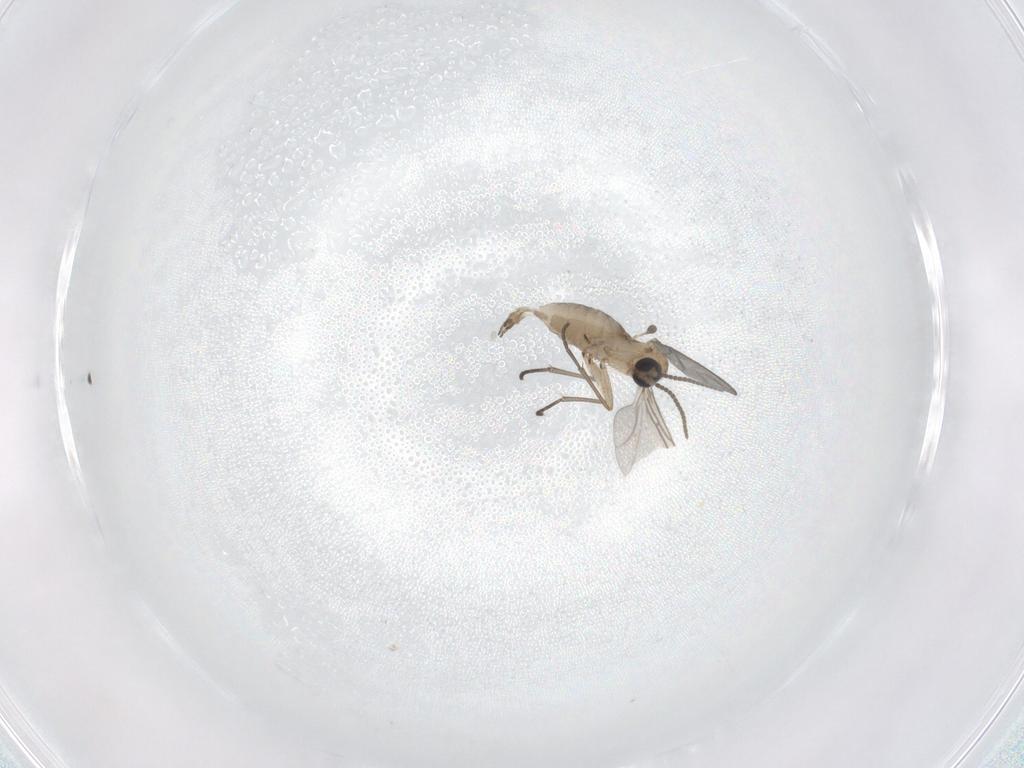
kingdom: Animalia
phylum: Arthropoda
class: Insecta
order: Diptera
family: Sciaridae
